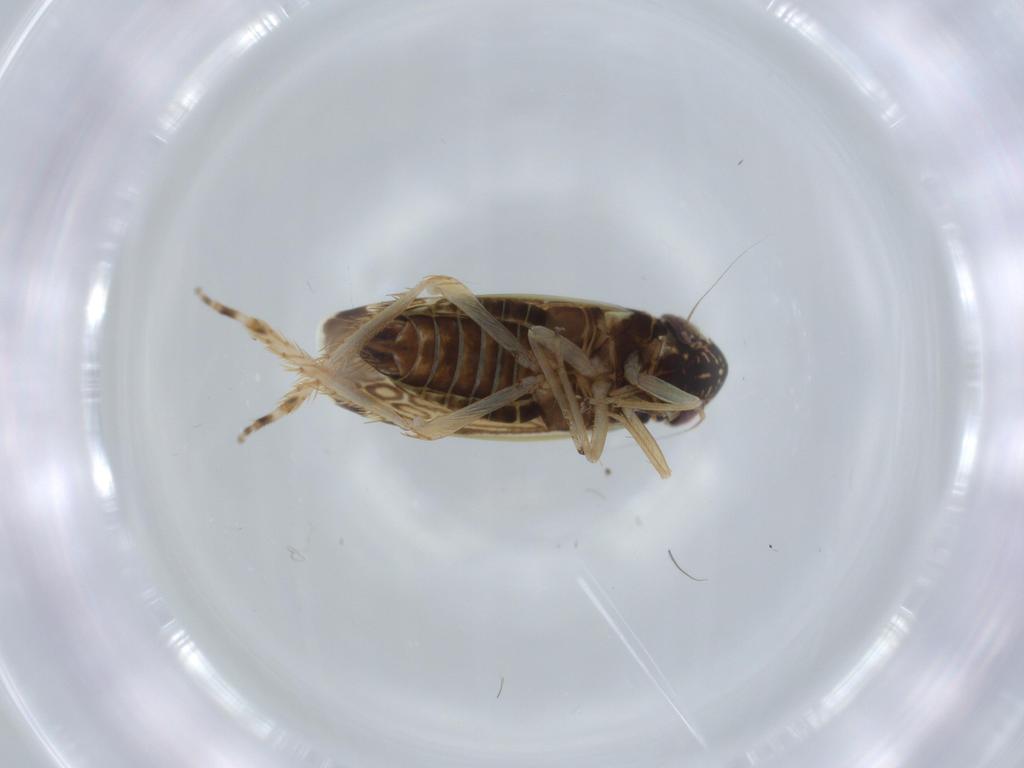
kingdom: Animalia
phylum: Arthropoda
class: Insecta
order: Hemiptera
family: Cicadellidae
